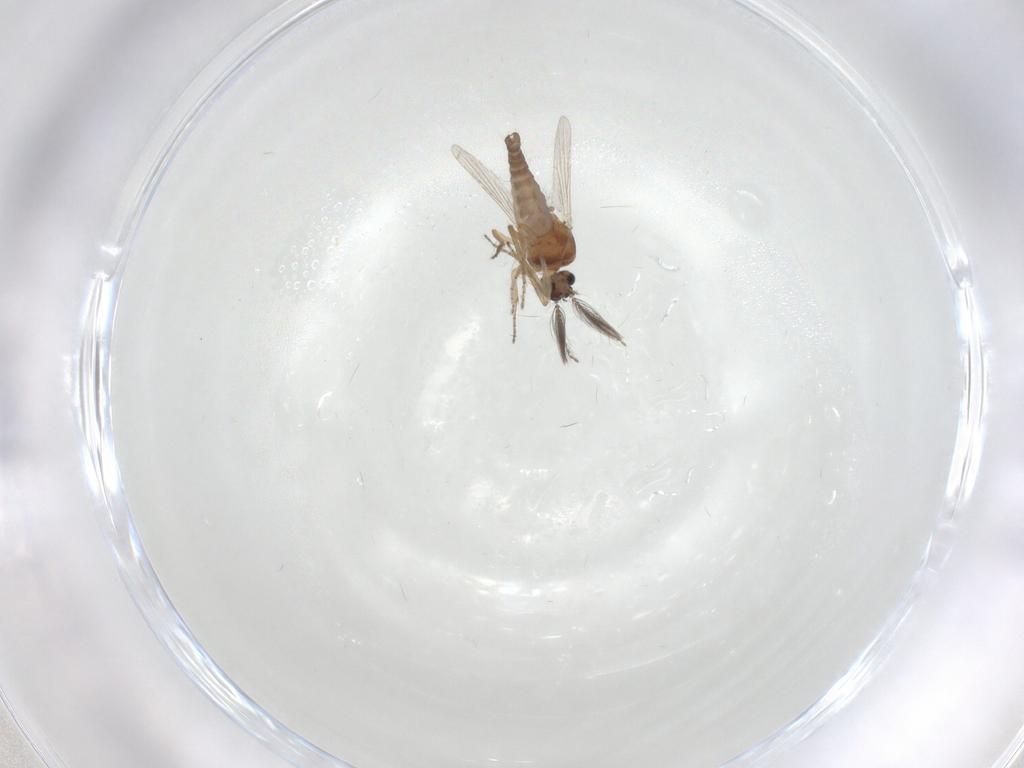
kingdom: Animalia
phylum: Arthropoda
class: Insecta
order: Diptera
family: Ceratopogonidae
